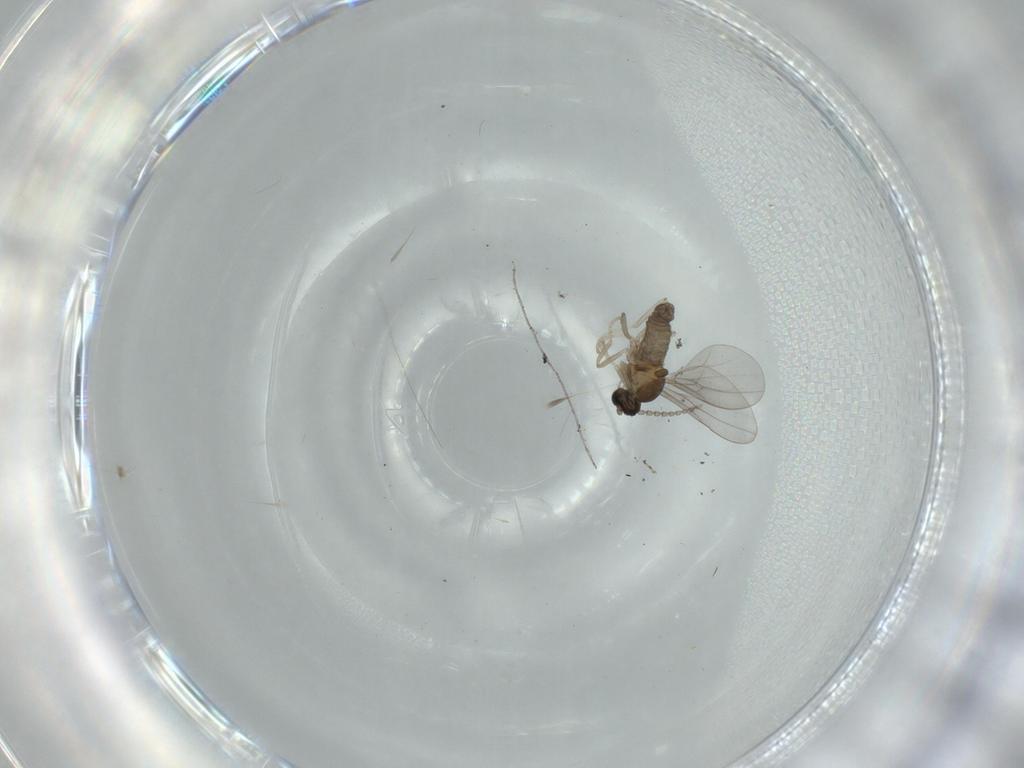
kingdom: Animalia
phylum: Arthropoda
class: Insecta
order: Diptera
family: Cecidomyiidae
